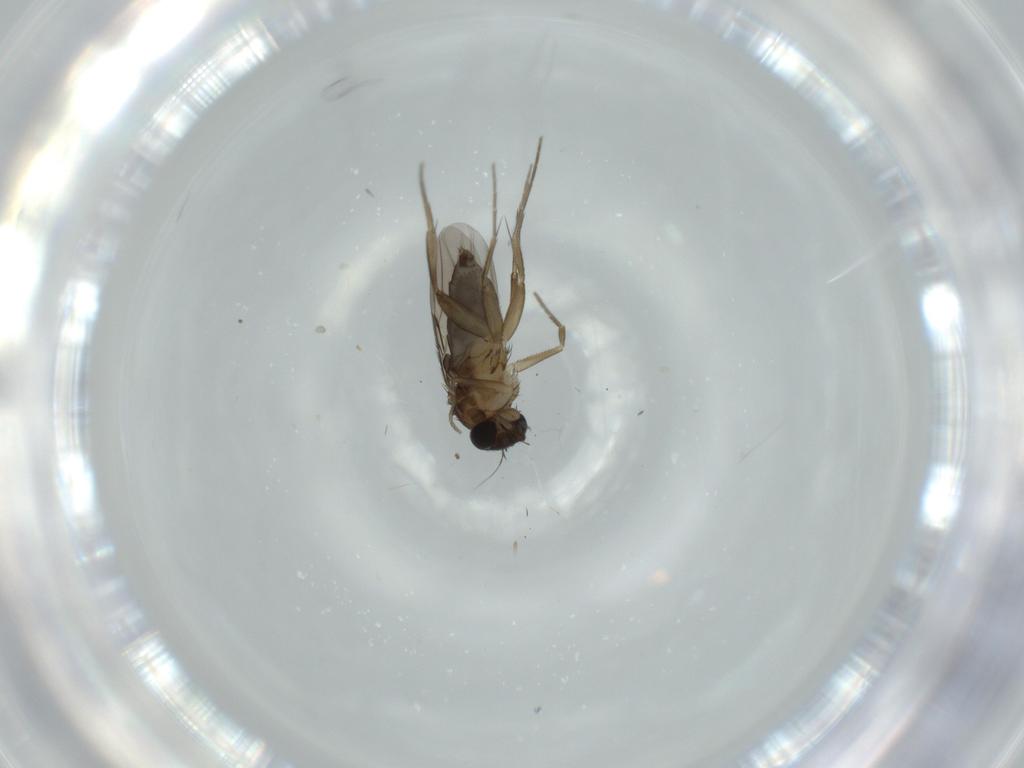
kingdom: Animalia
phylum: Arthropoda
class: Insecta
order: Diptera
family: Phoridae
